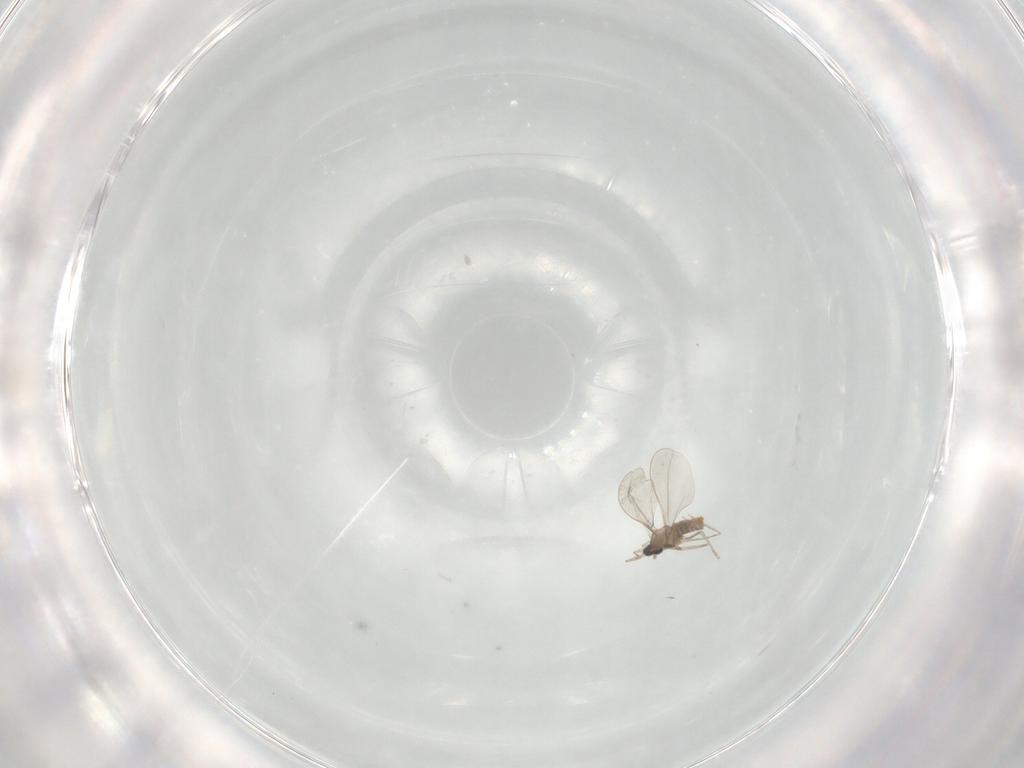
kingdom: Animalia
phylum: Arthropoda
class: Insecta
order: Diptera
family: Cecidomyiidae
